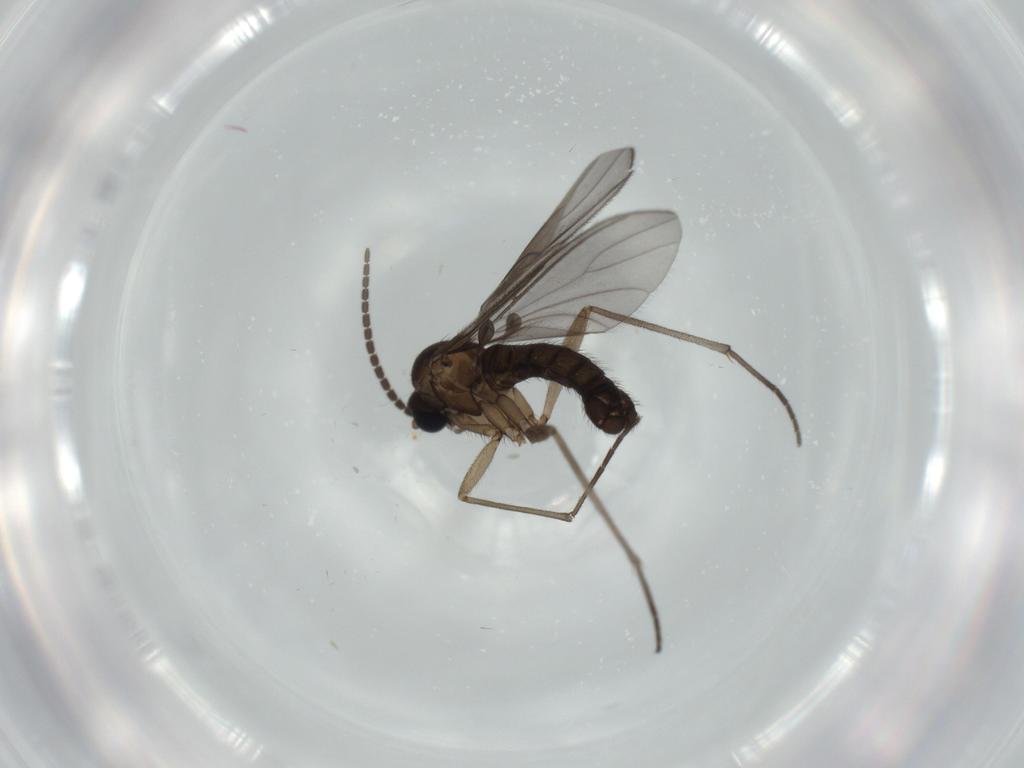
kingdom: Animalia
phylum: Arthropoda
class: Insecta
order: Diptera
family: Sciaridae
